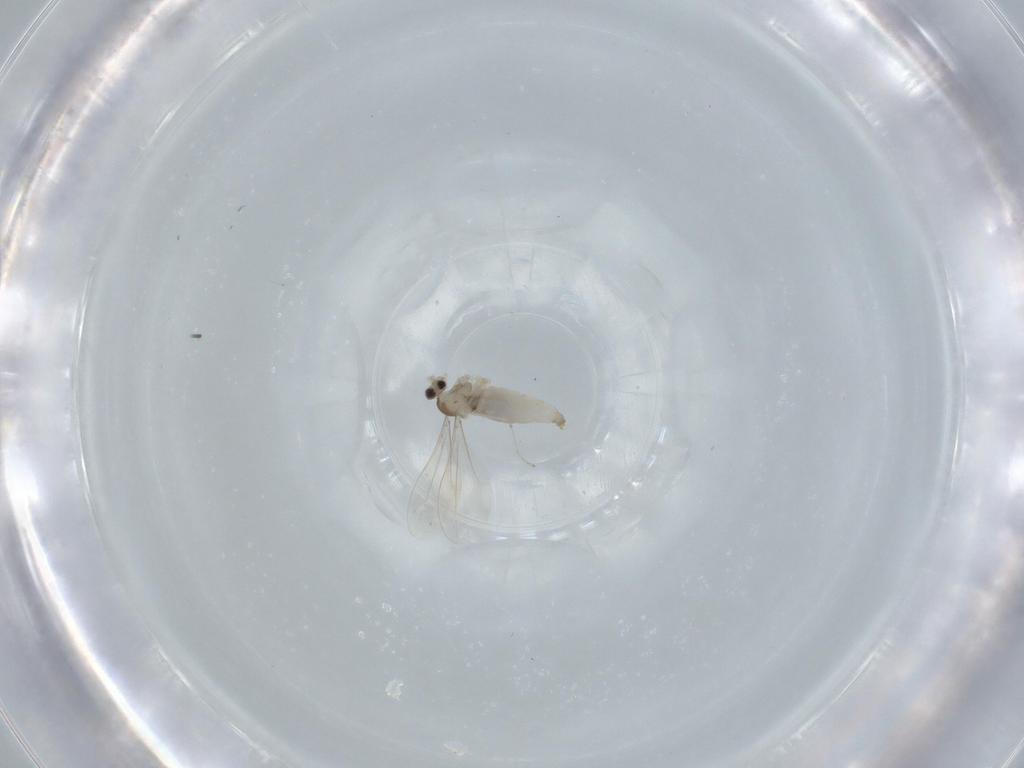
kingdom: Animalia
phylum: Arthropoda
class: Insecta
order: Diptera
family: Cecidomyiidae
